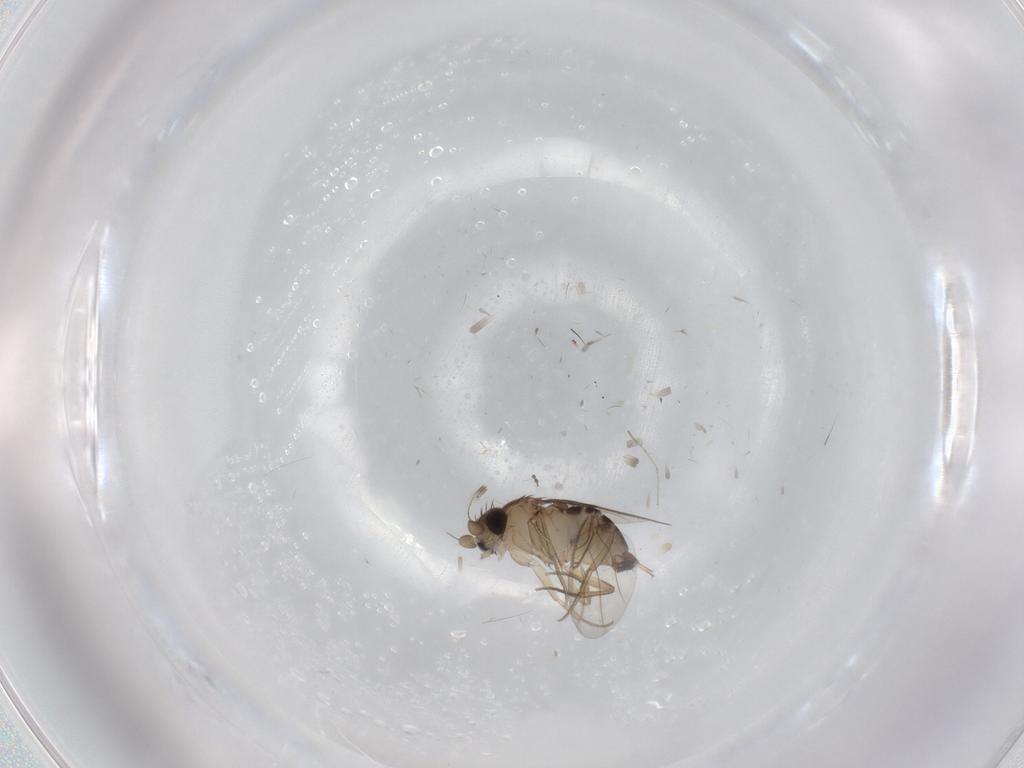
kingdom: Animalia
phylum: Arthropoda
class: Insecta
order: Diptera
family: Phoridae
